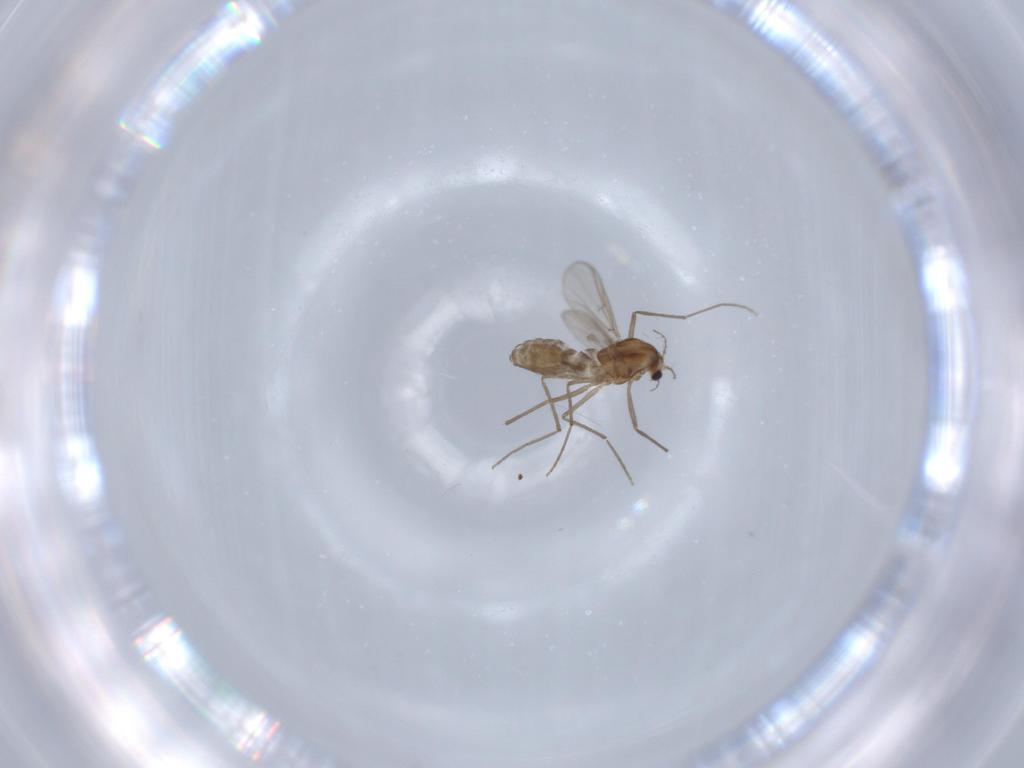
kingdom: Animalia
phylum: Arthropoda
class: Insecta
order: Diptera
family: Chironomidae
